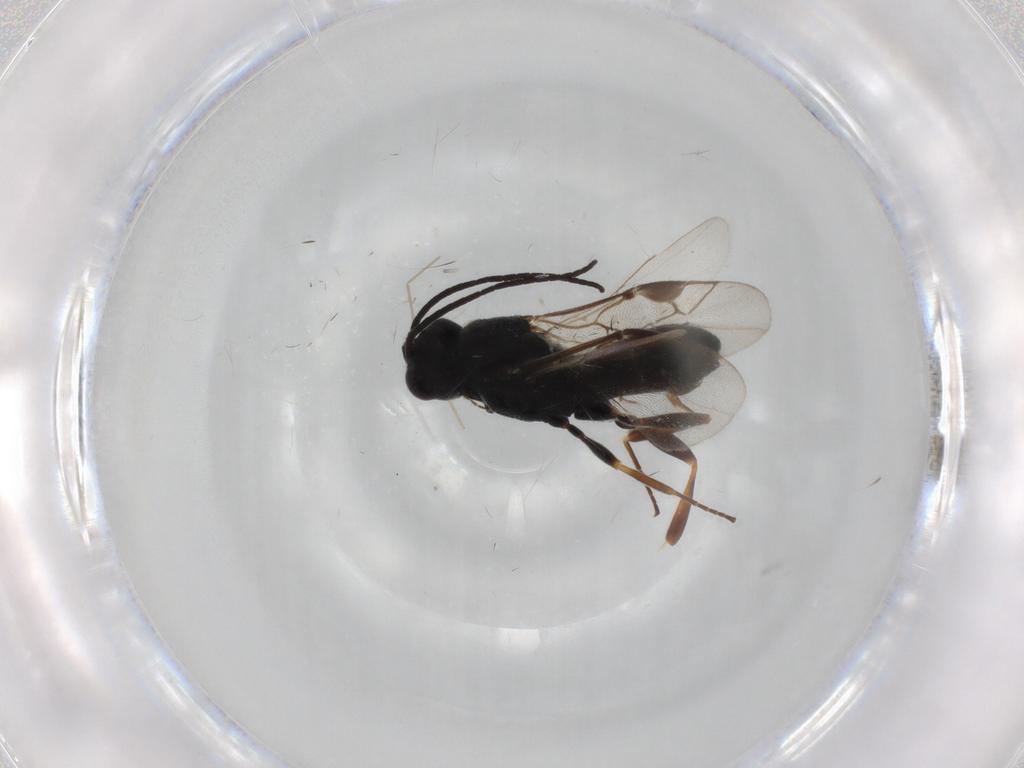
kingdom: Animalia
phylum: Arthropoda
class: Insecta
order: Hymenoptera
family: Braconidae
